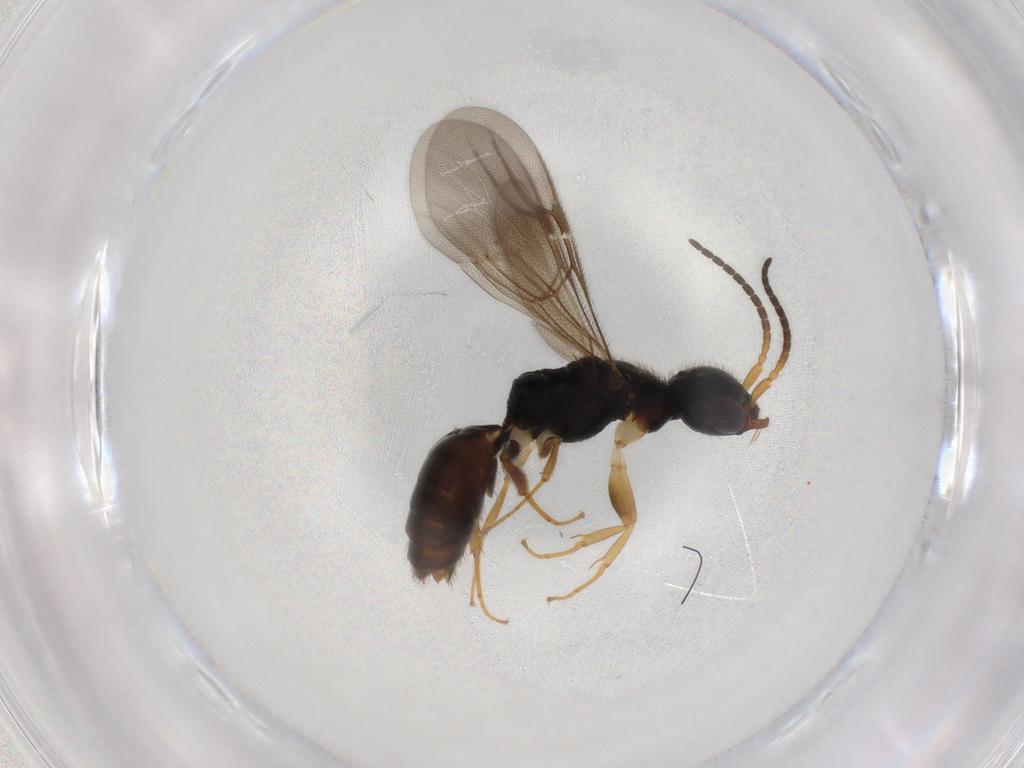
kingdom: Animalia
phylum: Arthropoda
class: Insecta
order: Hymenoptera
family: Bethylidae
